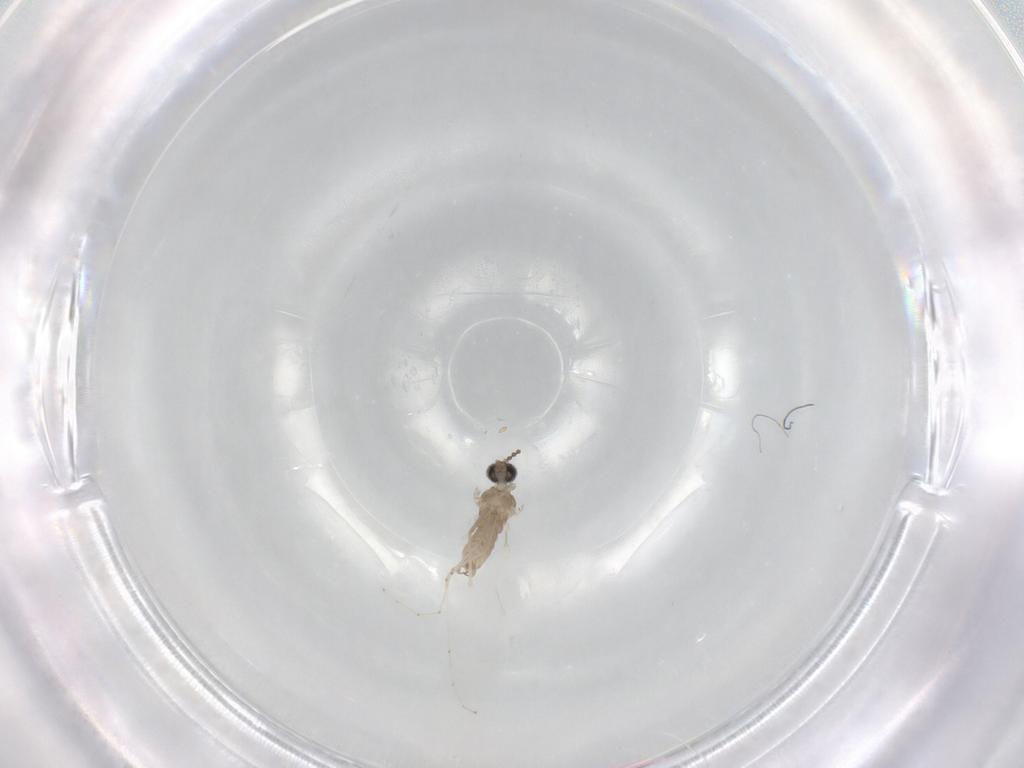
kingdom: Animalia
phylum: Arthropoda
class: Insecta
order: Diptera
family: Cecidomyiidae
